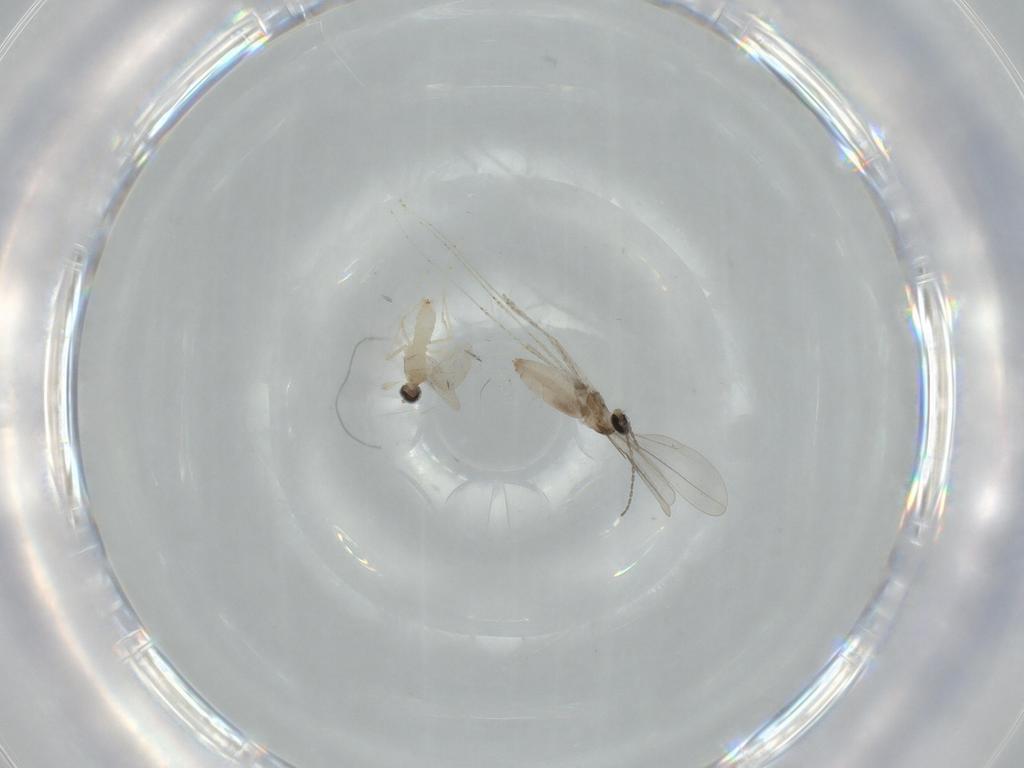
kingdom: Animalia
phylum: Arthropoda
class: Insecta
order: Diptera
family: Cecidomyiidae
